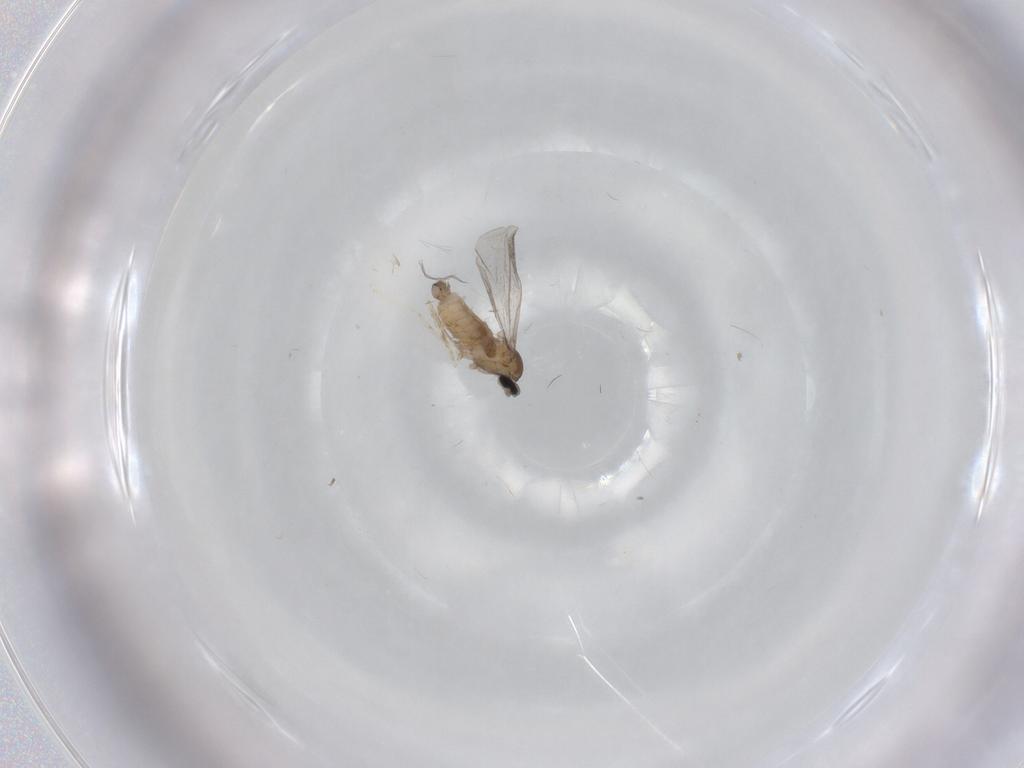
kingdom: Animalia
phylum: Arthropoda
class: Insecta
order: Diptera
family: Cecidomyiidae
